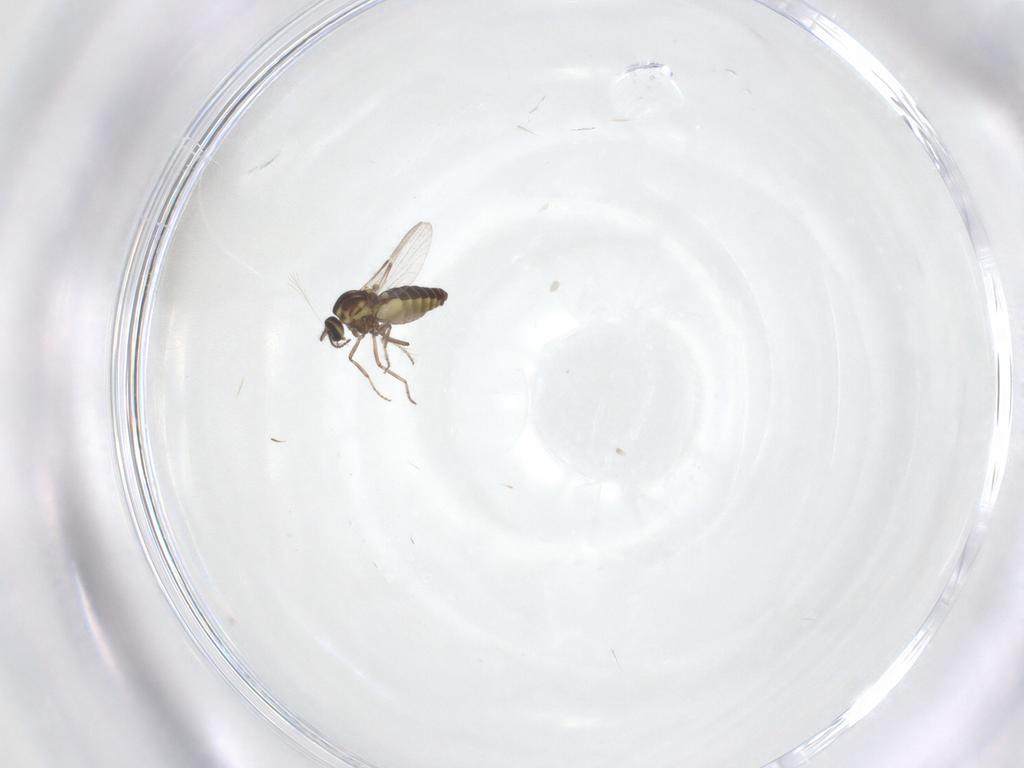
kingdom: Animalia
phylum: Arthropoda
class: Insecta
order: Diptera
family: Ceratopogonidae
